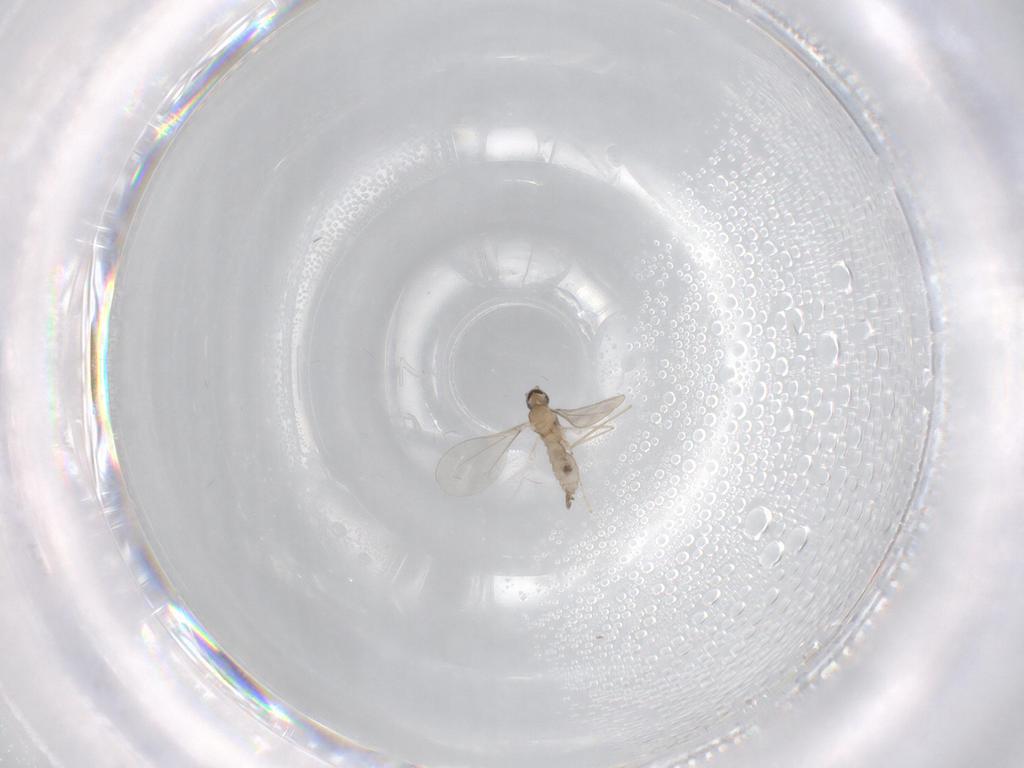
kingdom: Animalia
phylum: Arthropoda
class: Insecta
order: Diptera
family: Cecidomyiidae
